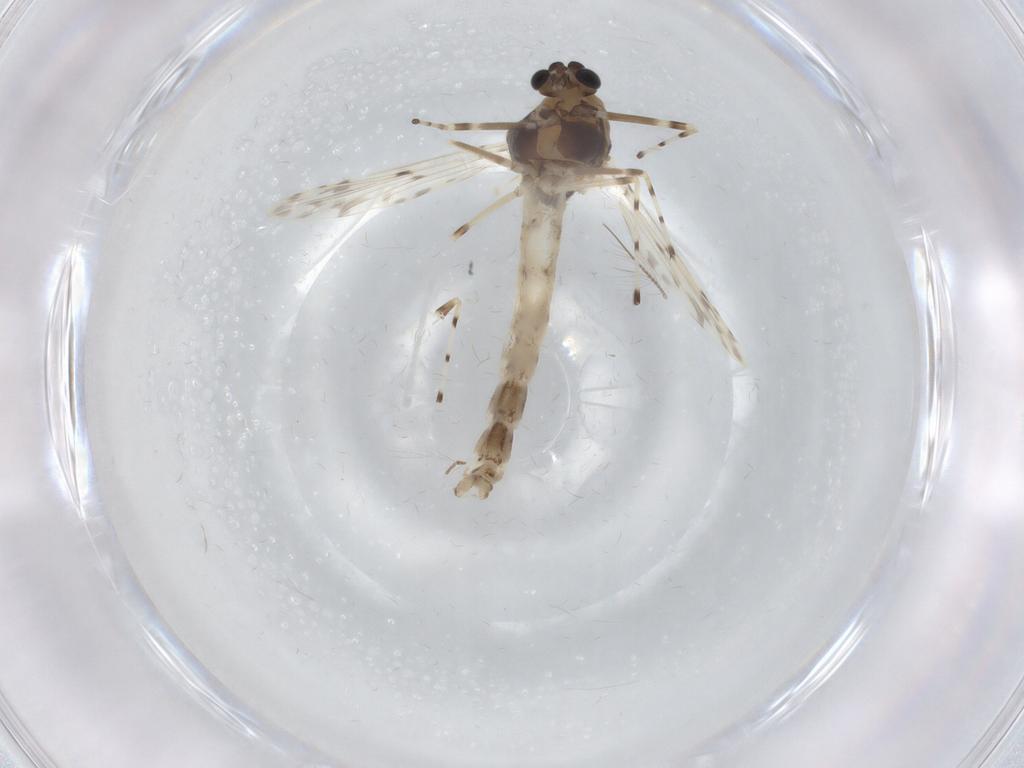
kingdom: Animalia
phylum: Arthropoda
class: Insecta
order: Diptera
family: Chironomidae
